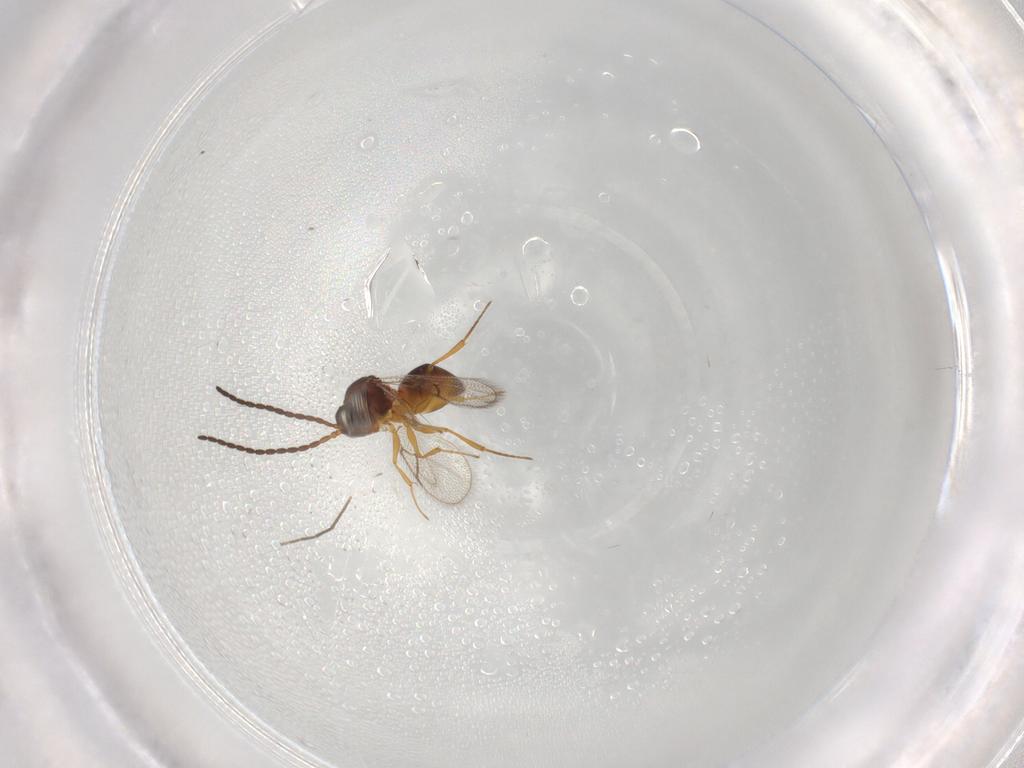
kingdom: Animalia
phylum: Arthropoda
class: Insecta
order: Hymenoptera
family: Figitidae
